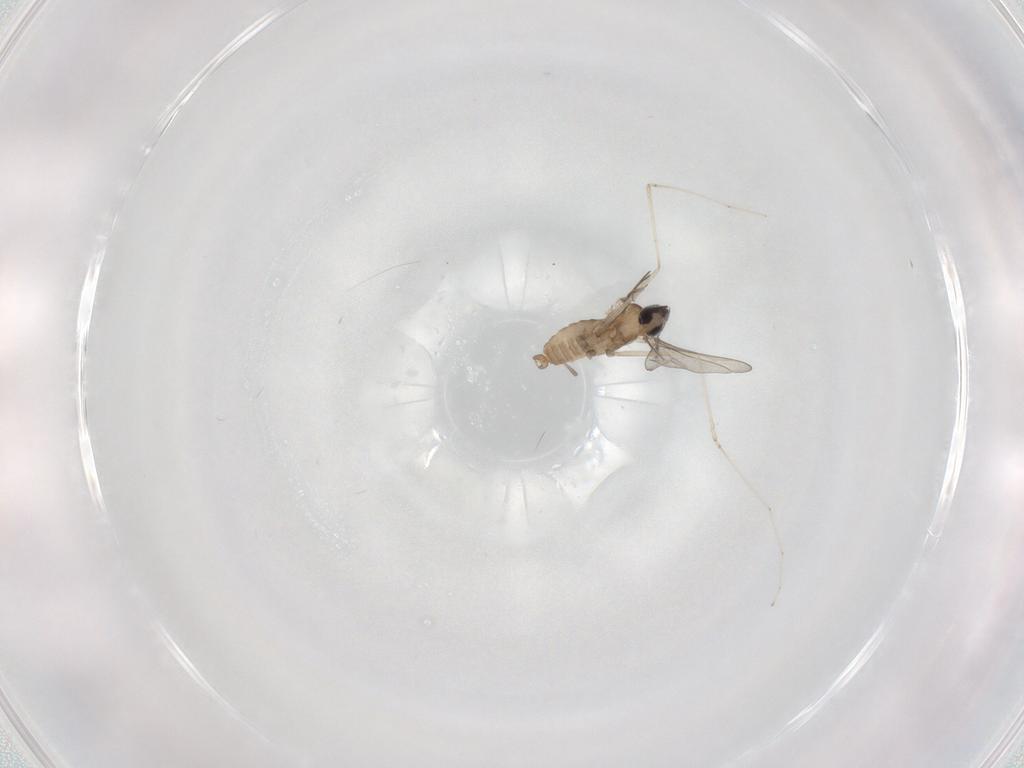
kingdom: Animalia
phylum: Arthropoda
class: Insecta
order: Diptera
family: Cecidomyiidae
